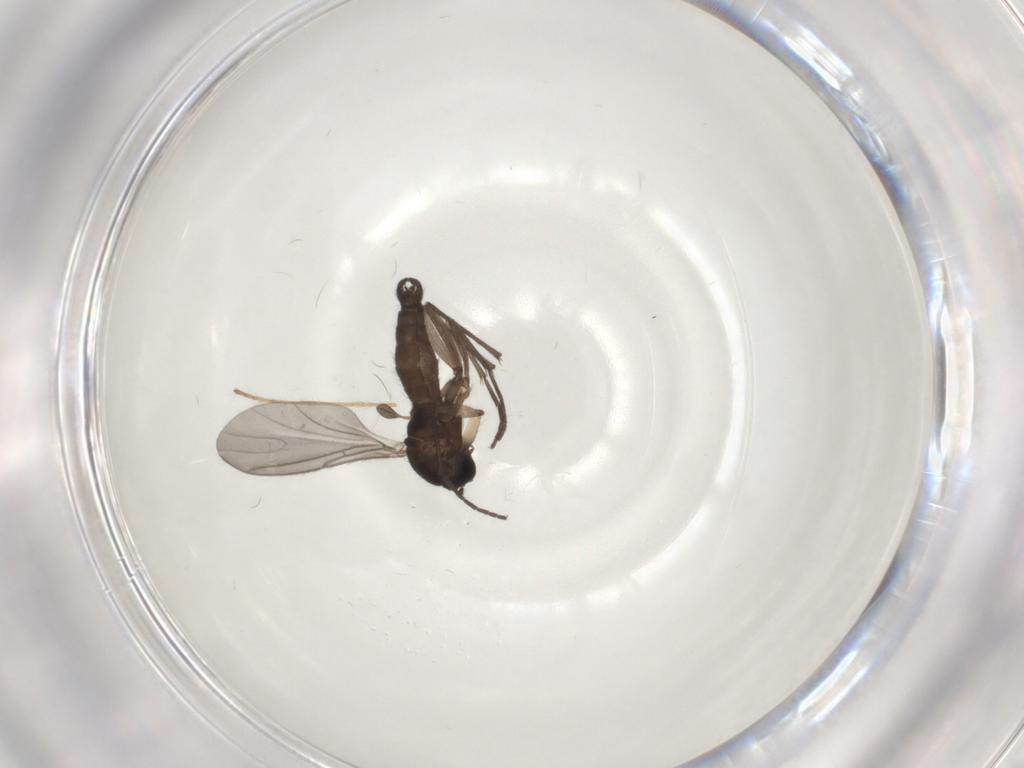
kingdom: Animalia
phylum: Arthropoda
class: Insecta
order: Diptera
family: Sciaridae
